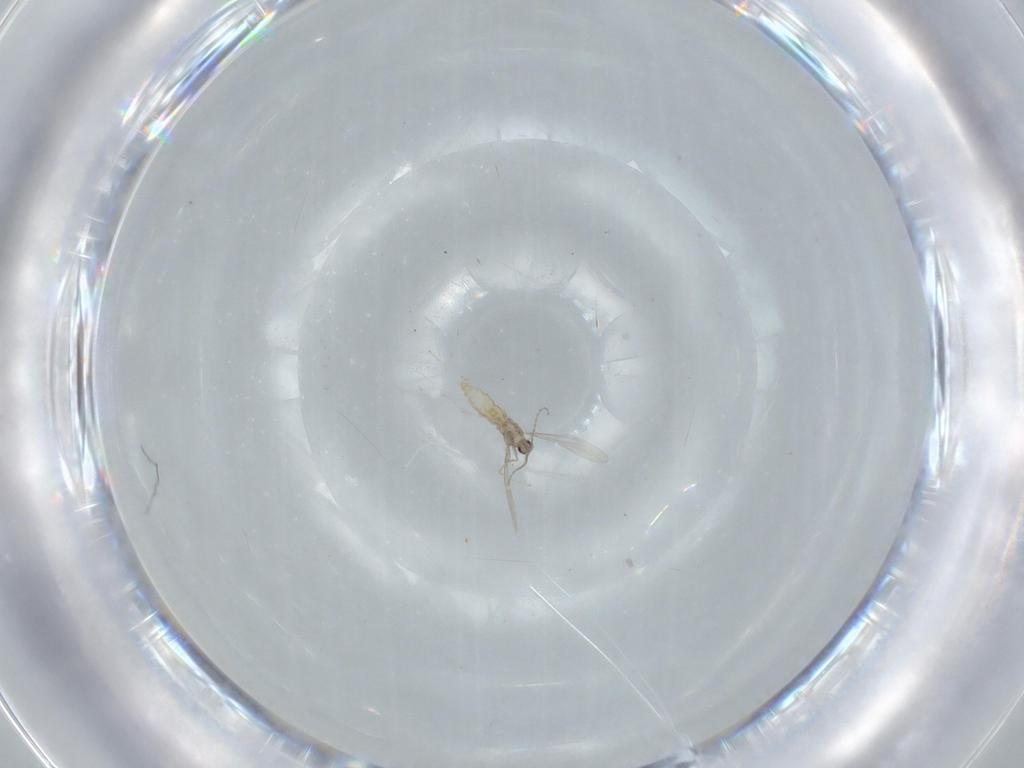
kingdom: Animalia
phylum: Arthropoda
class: Insecta
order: Diptera
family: Cecidomyiidae
